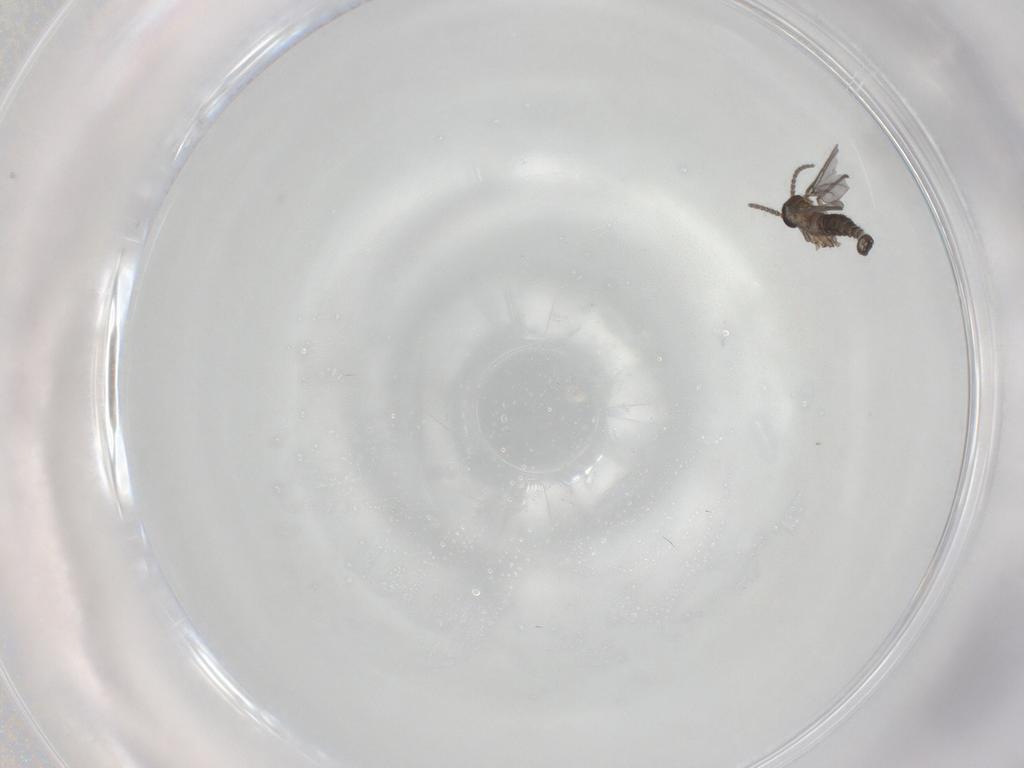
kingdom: Animalia
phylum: Arthropoda
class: Insecta
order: Diptera
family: Sciaridae
